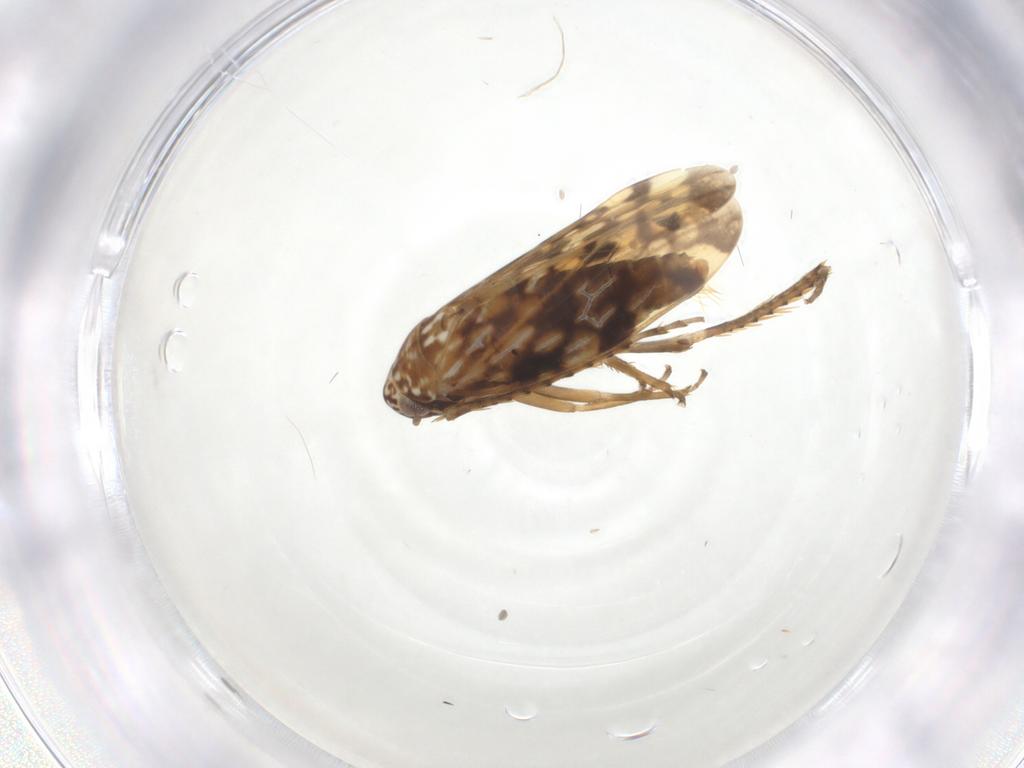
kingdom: Animalia
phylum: Arthropoda
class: Insecta
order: Hemiptera
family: Cicadellidae
